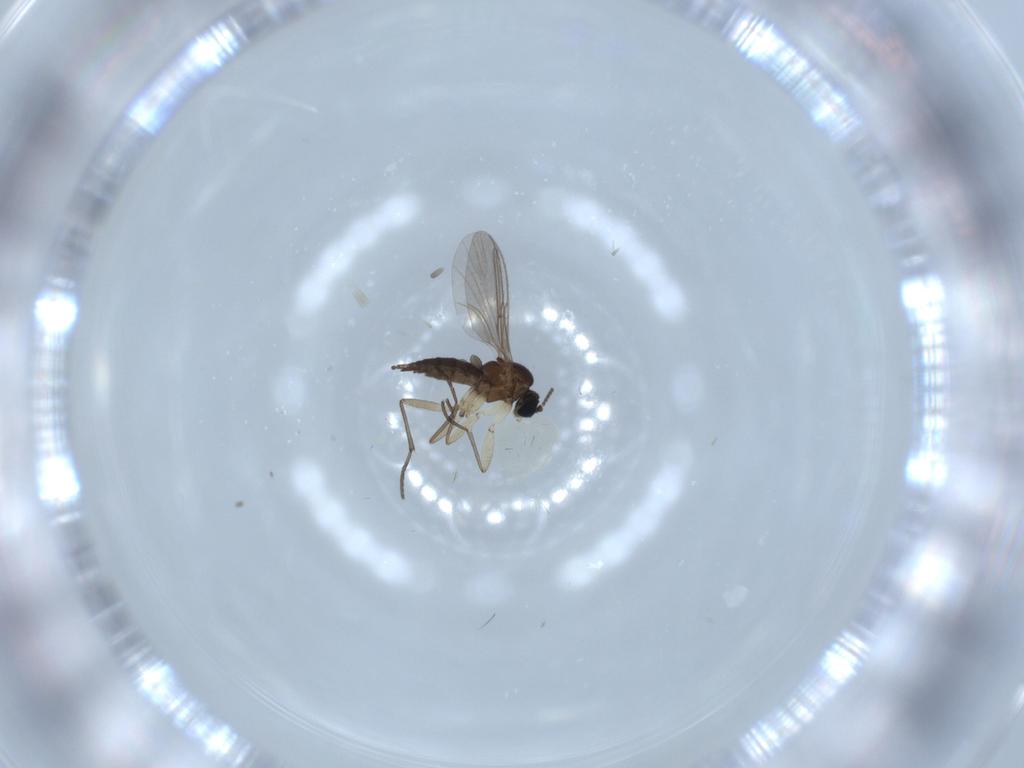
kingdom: Animalia
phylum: Arthropoda
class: Insecta
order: Diptera
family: Sciaridae
